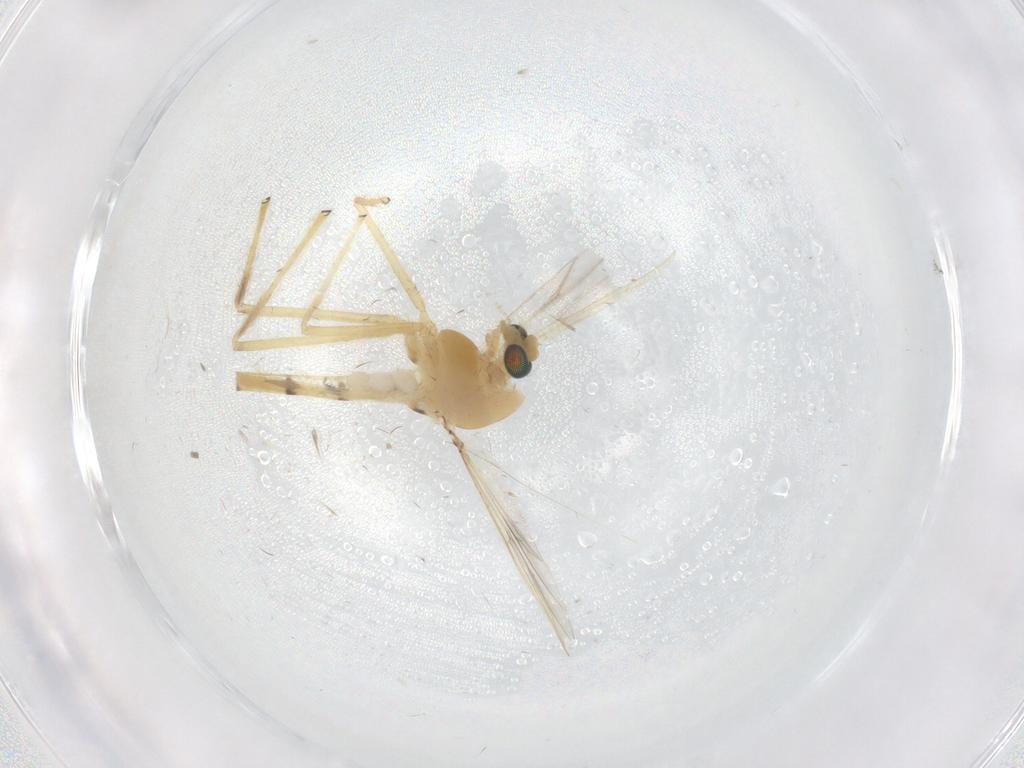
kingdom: Animalia
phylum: Arthropoda
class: Insecta
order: Diptera
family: Chironomidae
